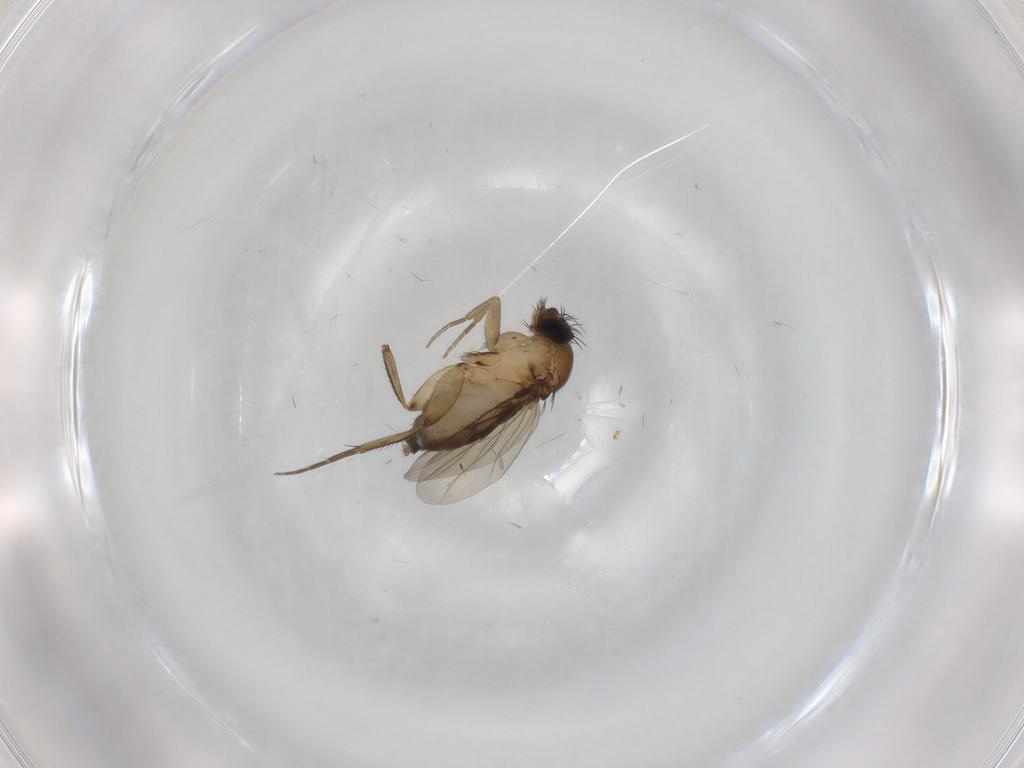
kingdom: Animalia
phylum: Arthropoda
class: Insecta
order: Diptera
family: Phoridae
